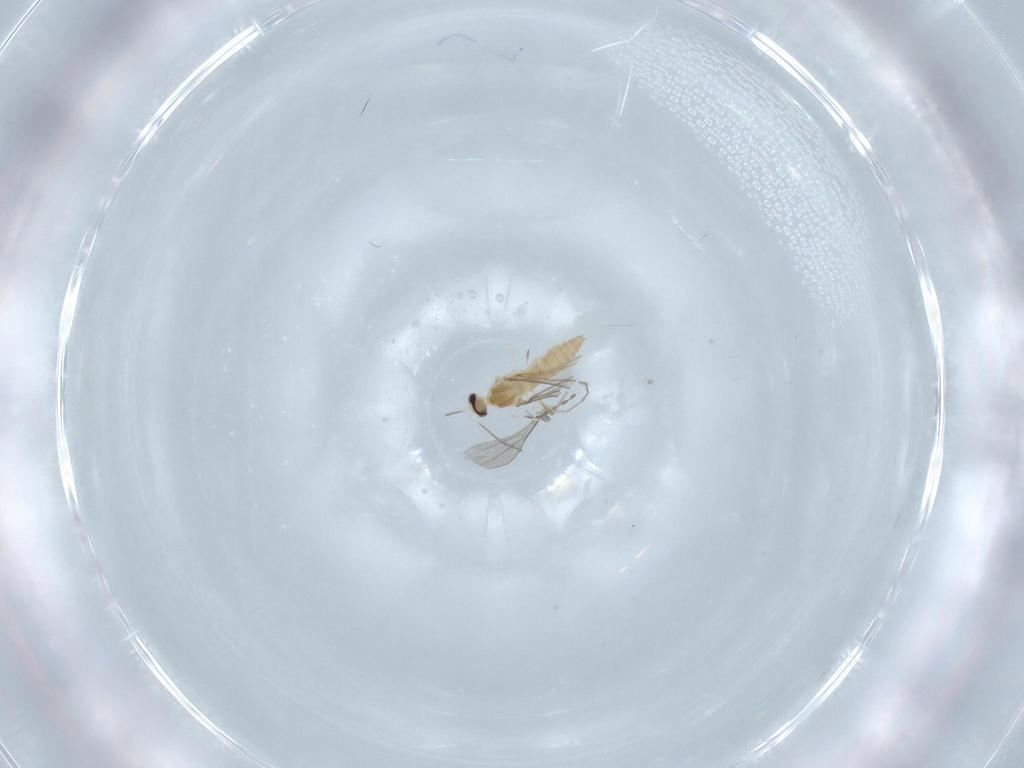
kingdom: Animalia
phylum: Arthropoda
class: Insecta
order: Diptera
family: Cecidomyiidae
